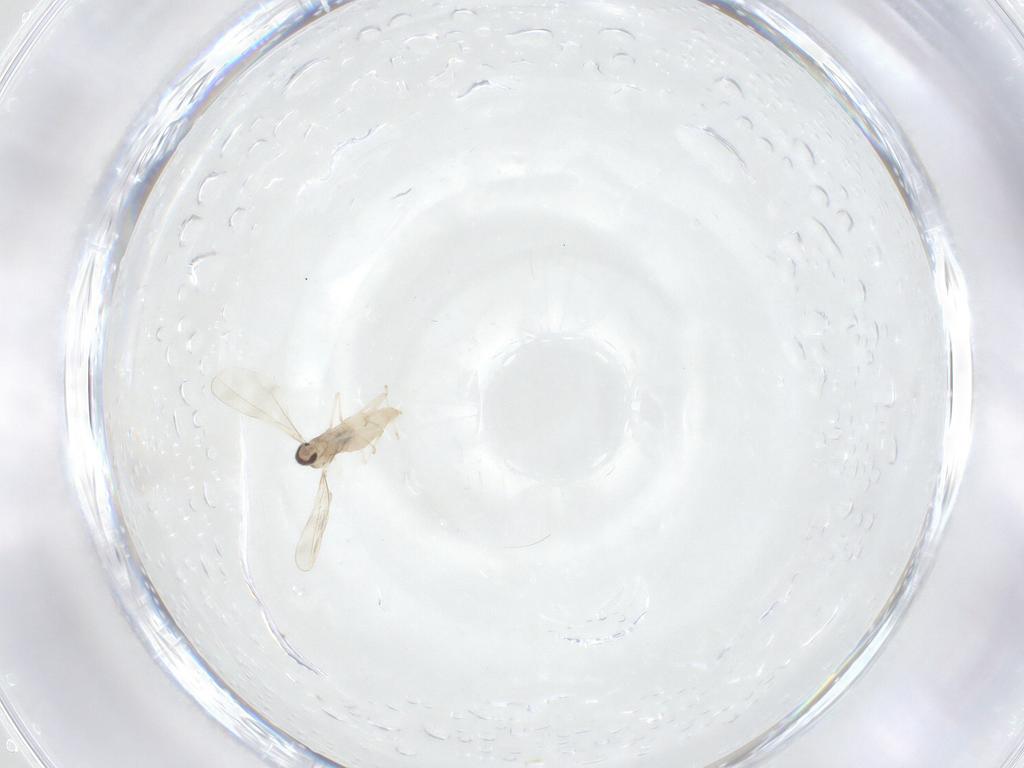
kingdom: Animalia
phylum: Arthropoda
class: Insecta
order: Diptera
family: Cecidomyiidae
